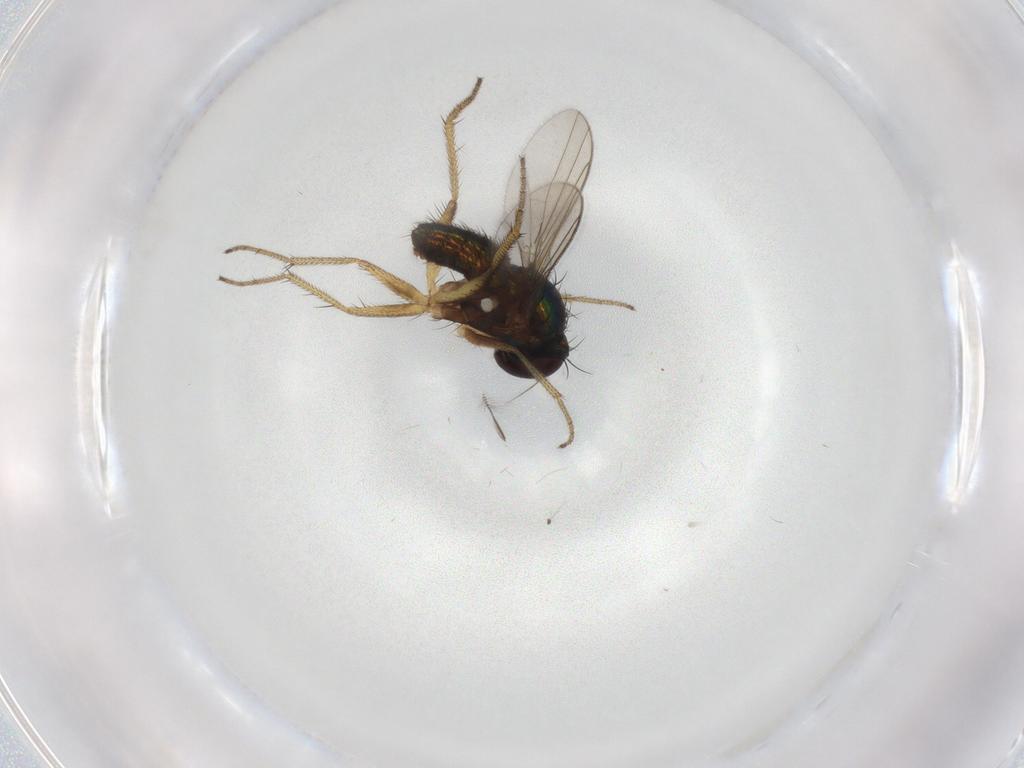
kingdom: Animalia
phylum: Arthropoda
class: Insecta
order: Diptera
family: Chironomidae
